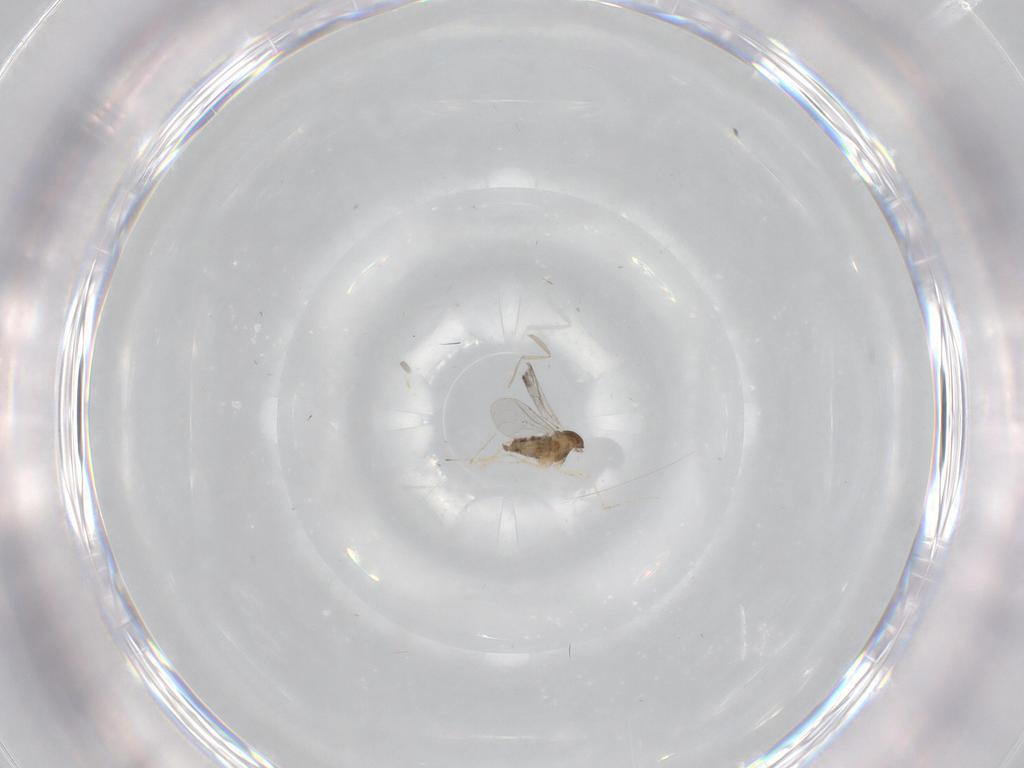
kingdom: Animalia
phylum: Arthropoda
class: Insecta
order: Diptera
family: Cecidomyiidae
